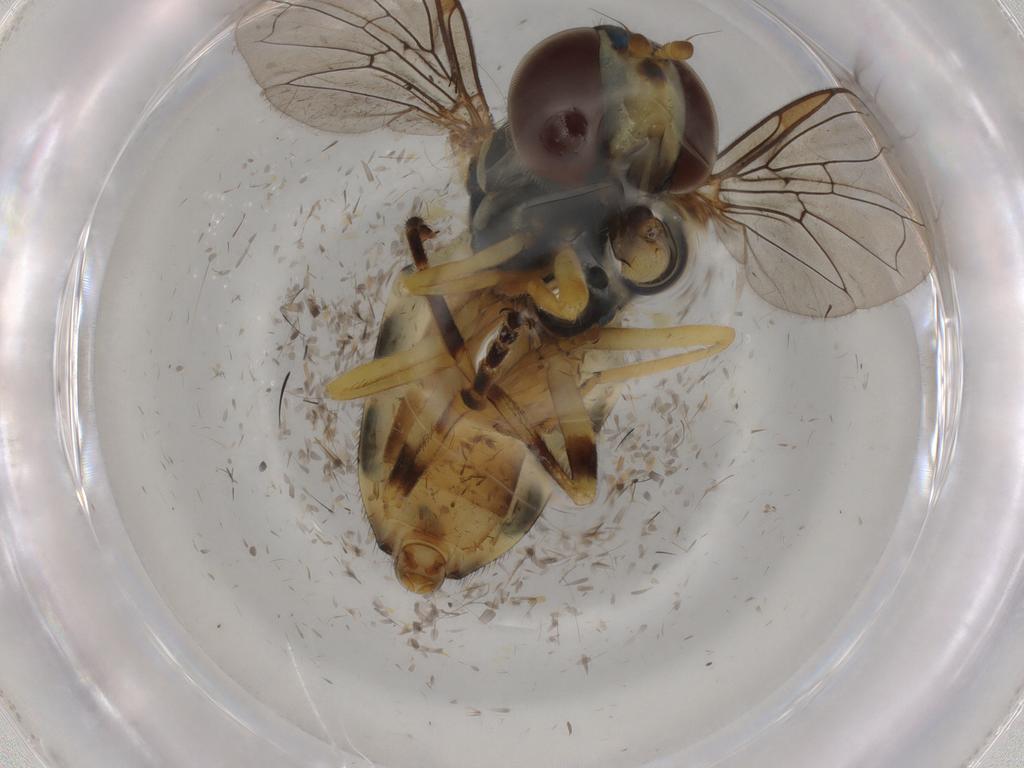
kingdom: Animalia
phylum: Arthropoda
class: Insecta
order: Diptera
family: Syrphidae
